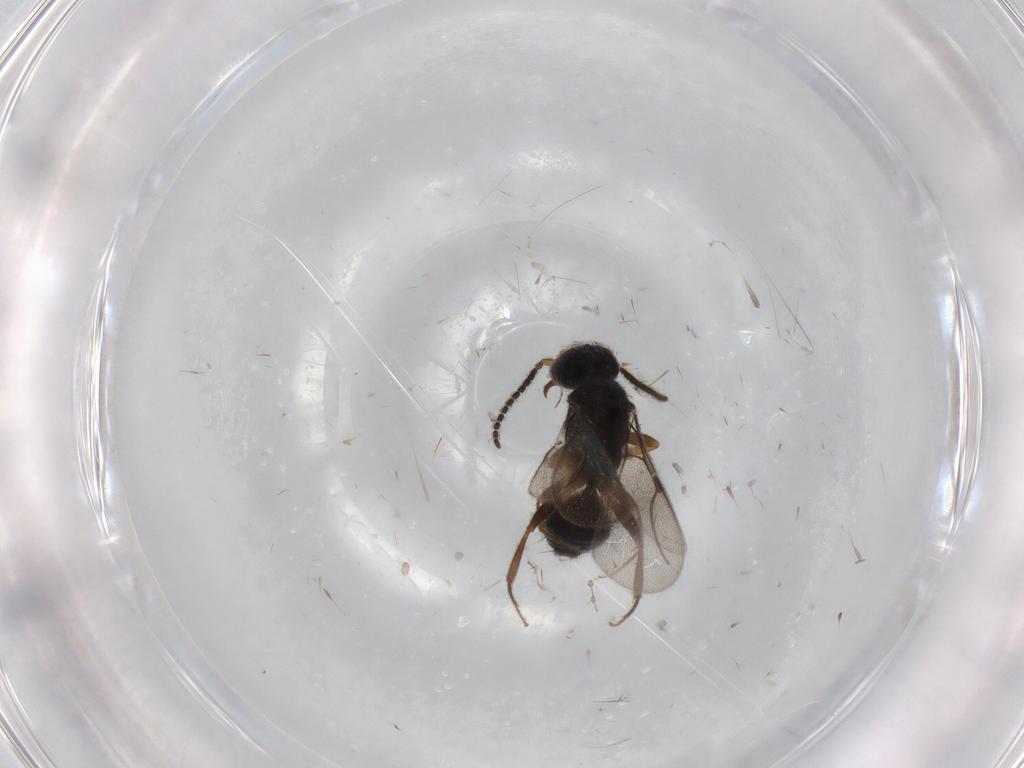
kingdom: Animalia
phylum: Arthropoda
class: Insecta
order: Hymenoptera
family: Bethylidae
